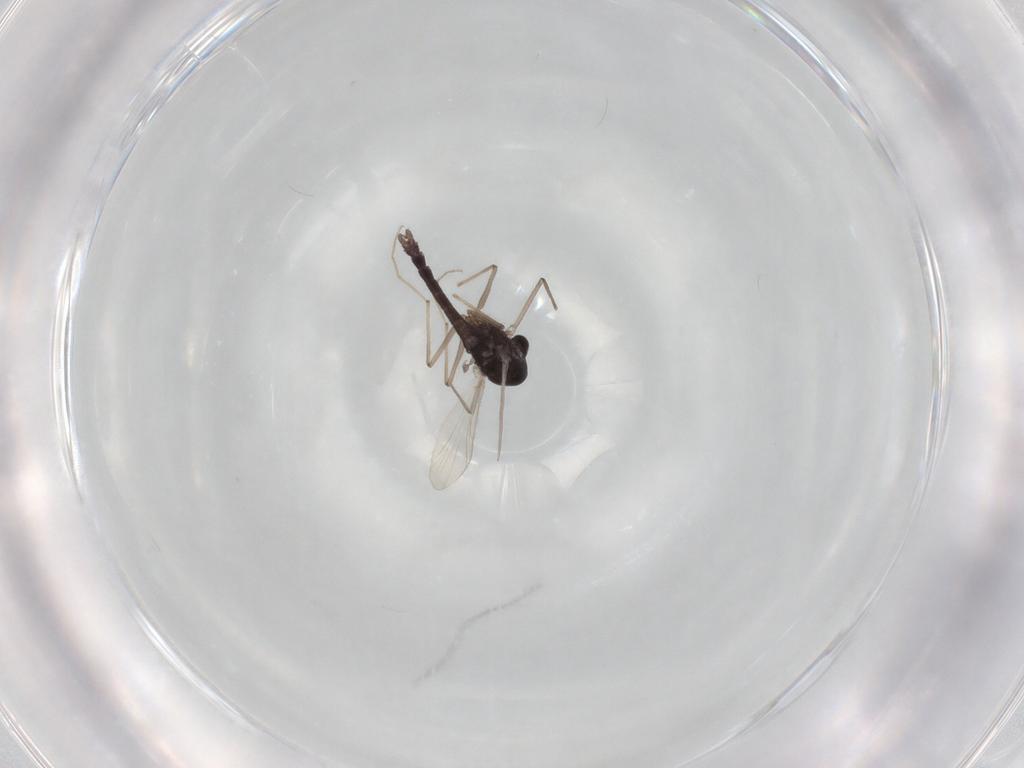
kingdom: Animalia
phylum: Arthropoda
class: Insecta
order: Diptera
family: Chironomidae
